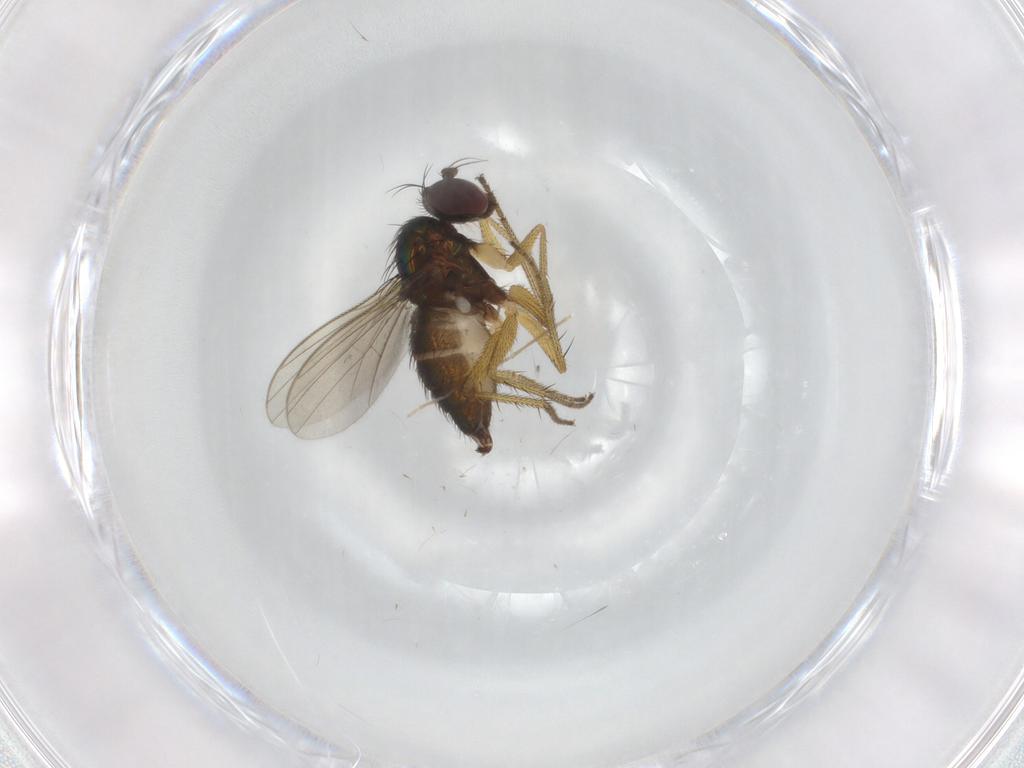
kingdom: Animalia
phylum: Arthropoda
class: Insecta
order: Diptera
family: Dolichopodidae
